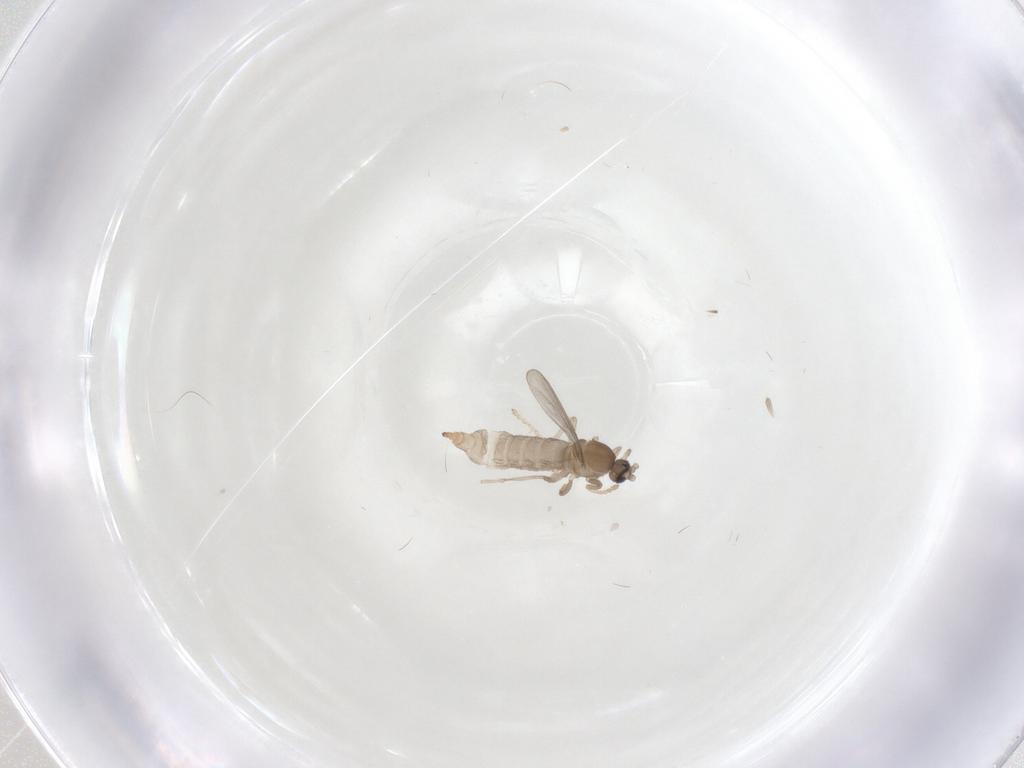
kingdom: Animalia
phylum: Arthropoda
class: Insecta
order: Diptera
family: Cecidomyiidae
